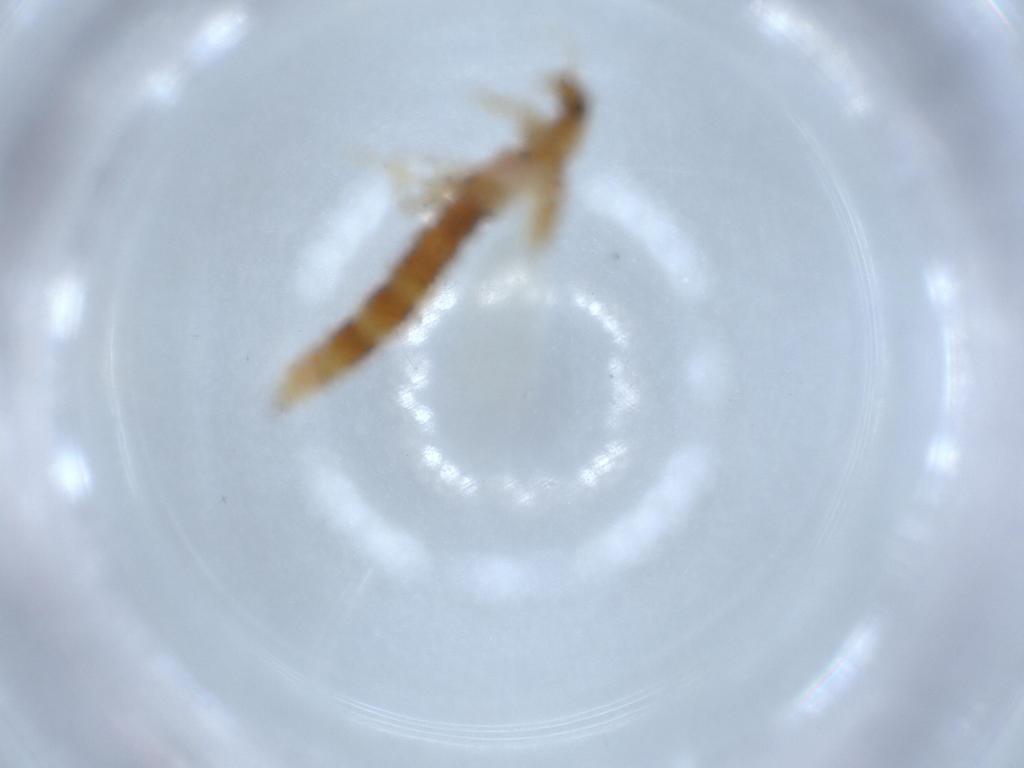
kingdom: Animalia
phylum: Arthropoda
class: Insecta
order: Coleoptera
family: Staphylinidae
